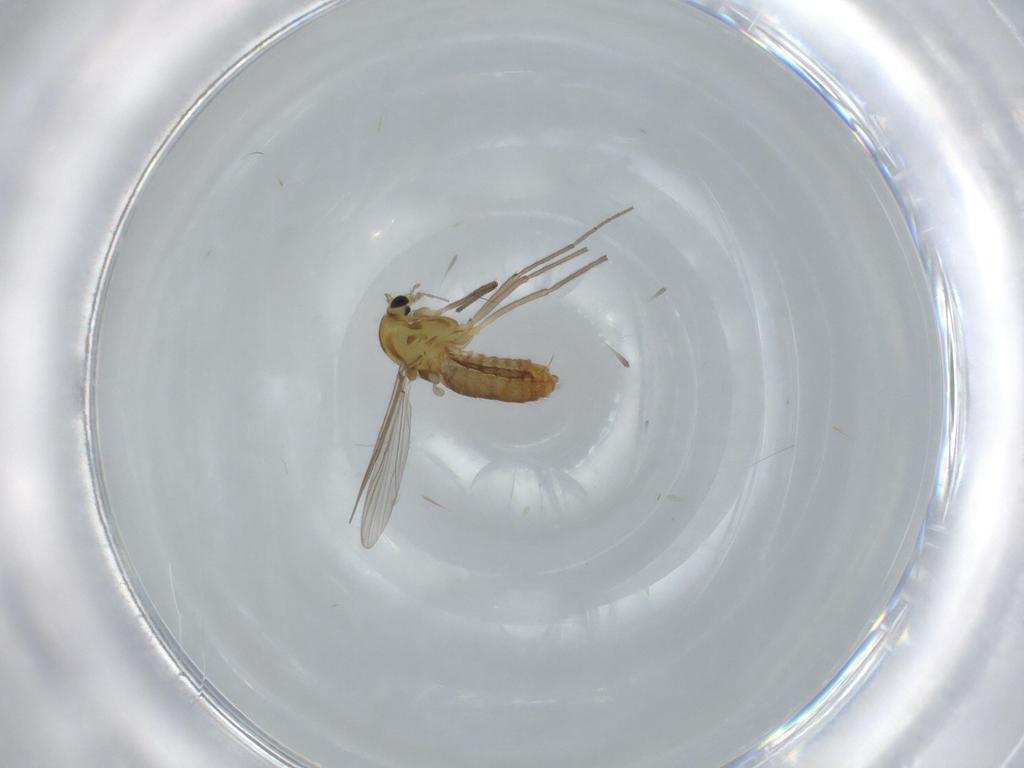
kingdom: Animalia
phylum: Arthropoda
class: Insecta
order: Diptera
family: Chironomidae
